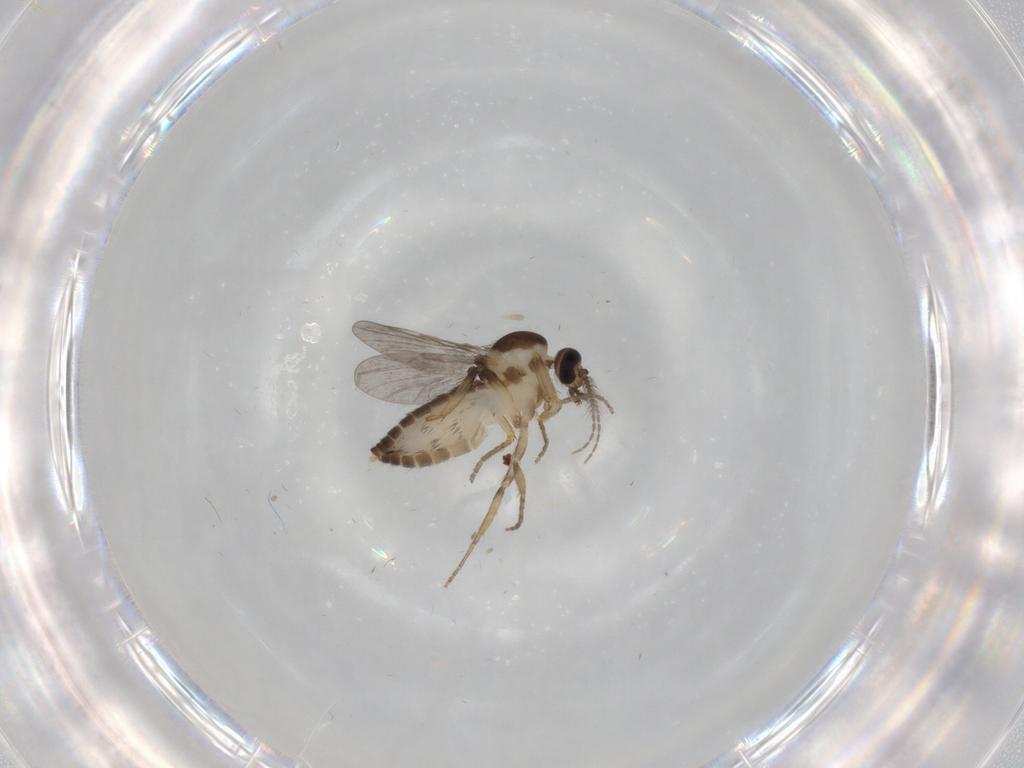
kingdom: Animalia
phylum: Arthropoda
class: Insecta
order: Diptera
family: Ceratopogonidae
